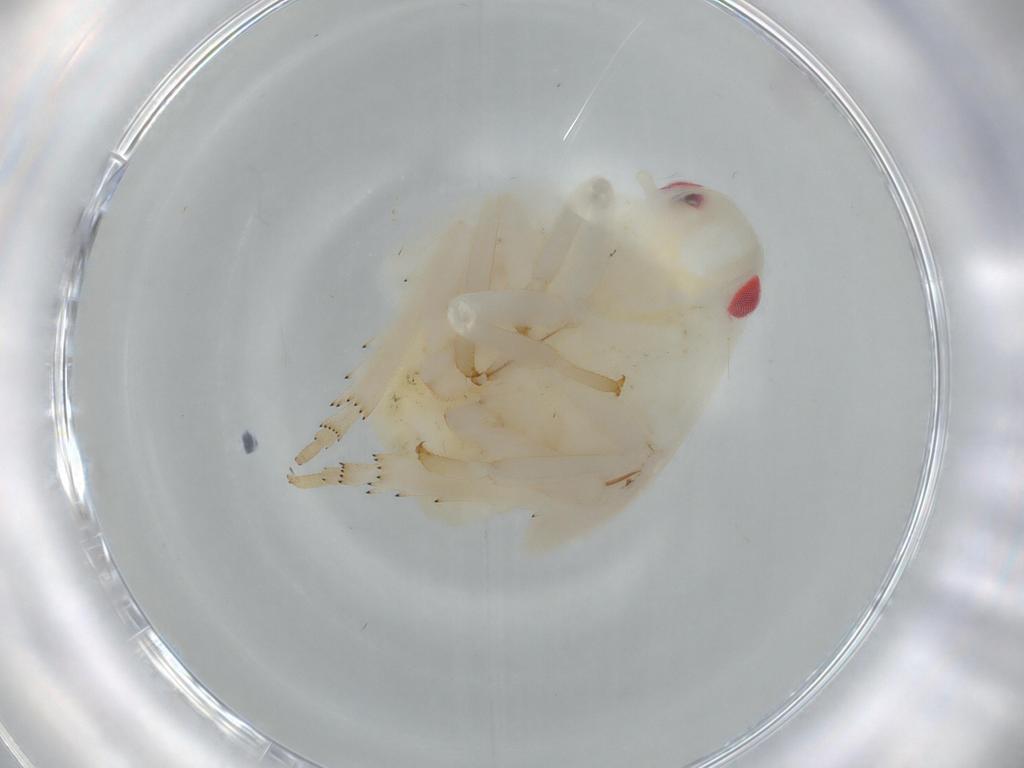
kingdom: Animalia
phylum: Arthropoda
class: Insecta
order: Hemiptera
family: Flatidae
